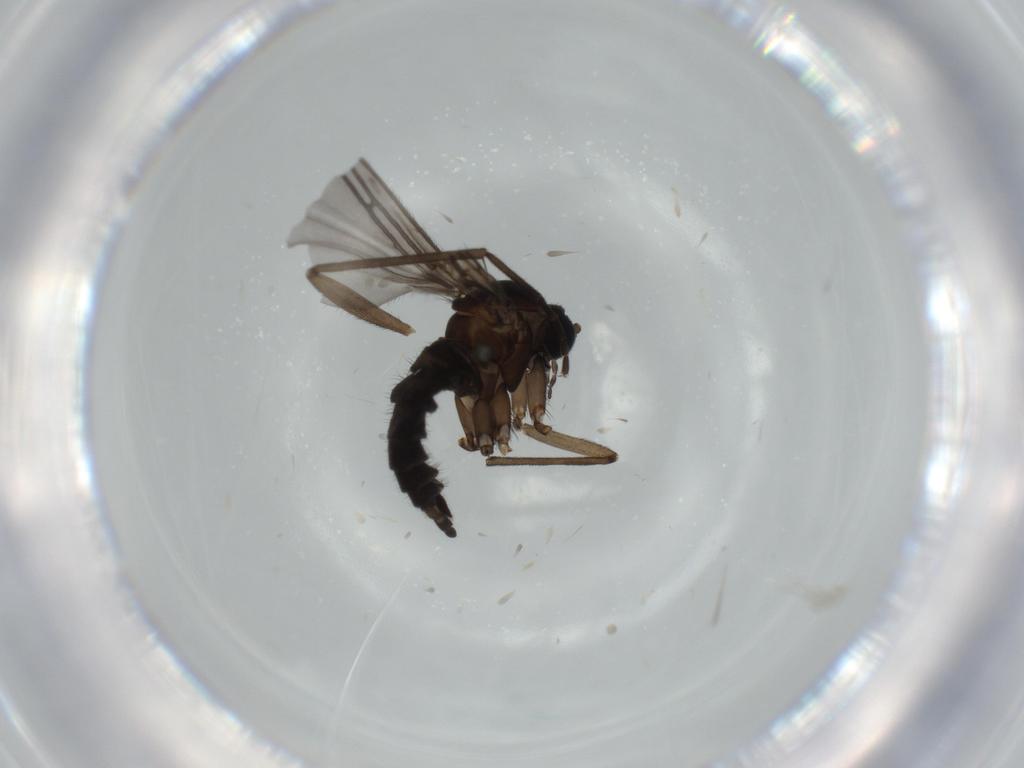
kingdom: Animalia
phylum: Arthropoda
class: Insecta
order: Diptera
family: Sciaridae
